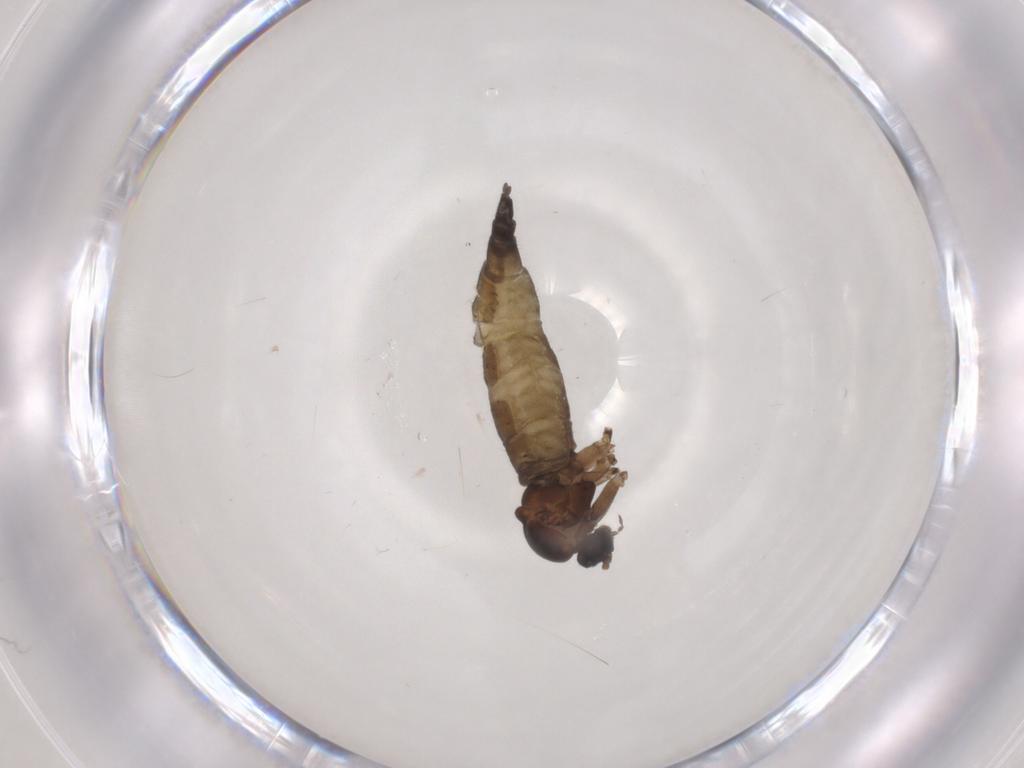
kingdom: Animalia
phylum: Arthropoda
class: Insecta
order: Diptera
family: Sciaridae
